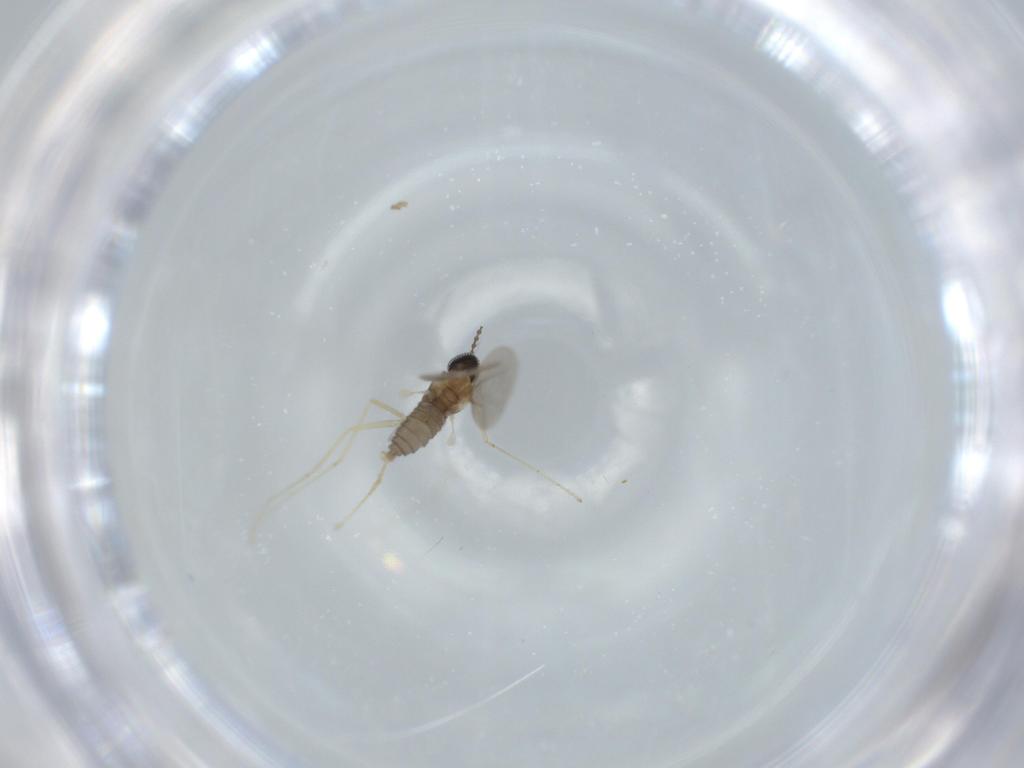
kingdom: Animalia
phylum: Arthropoda
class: Insecta
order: Diptera
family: Cecidomyiidae
